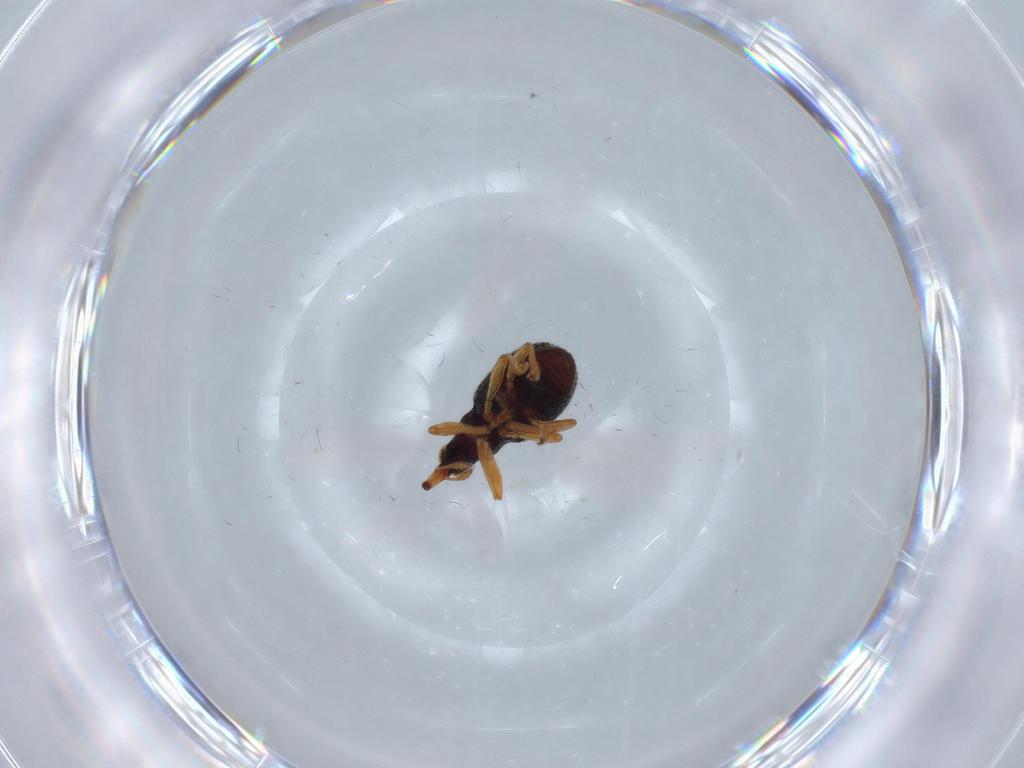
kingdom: Animalia
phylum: Arthropoda
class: Insecta
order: Coleoptera
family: Brentidae
